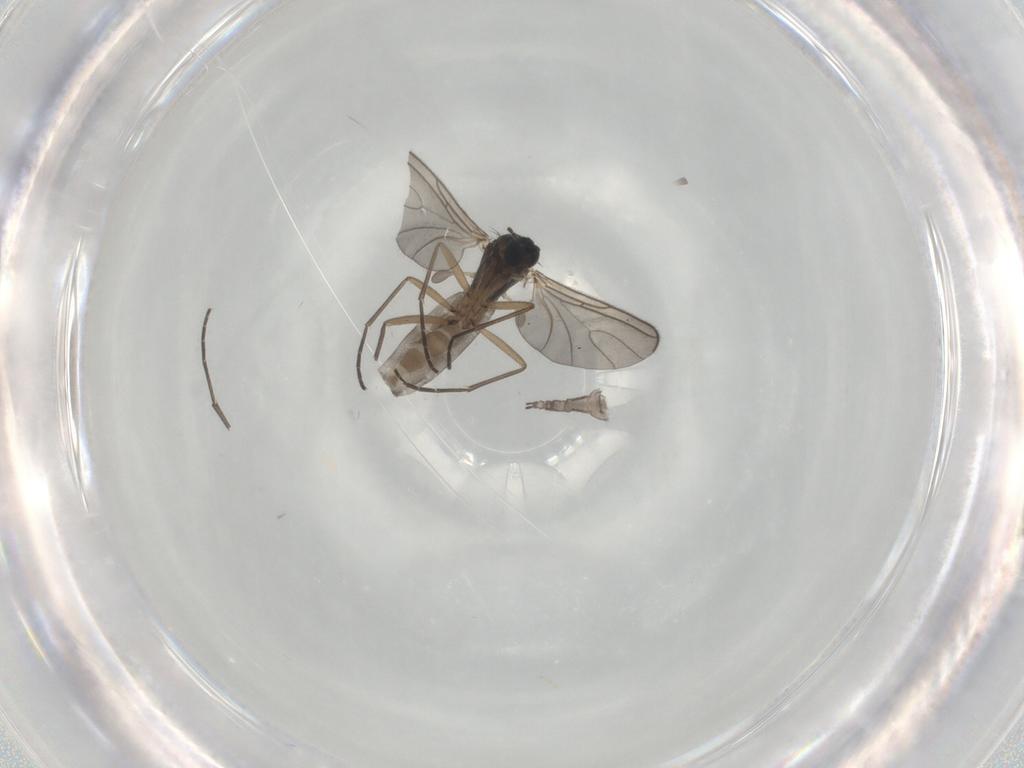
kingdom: Animalia
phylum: Arthropoda
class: Insecta
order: Diptera
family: Sciaridae
